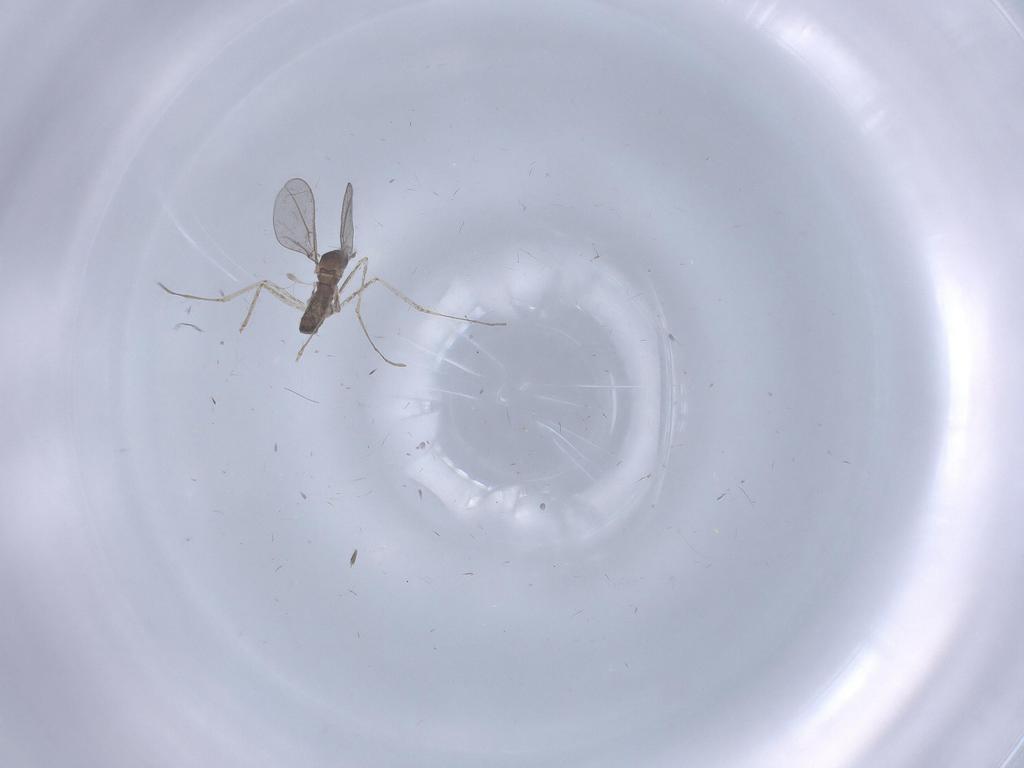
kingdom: Animalia
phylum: Arthropoda
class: Insecta
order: Diptera
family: Cecidomyiidae
